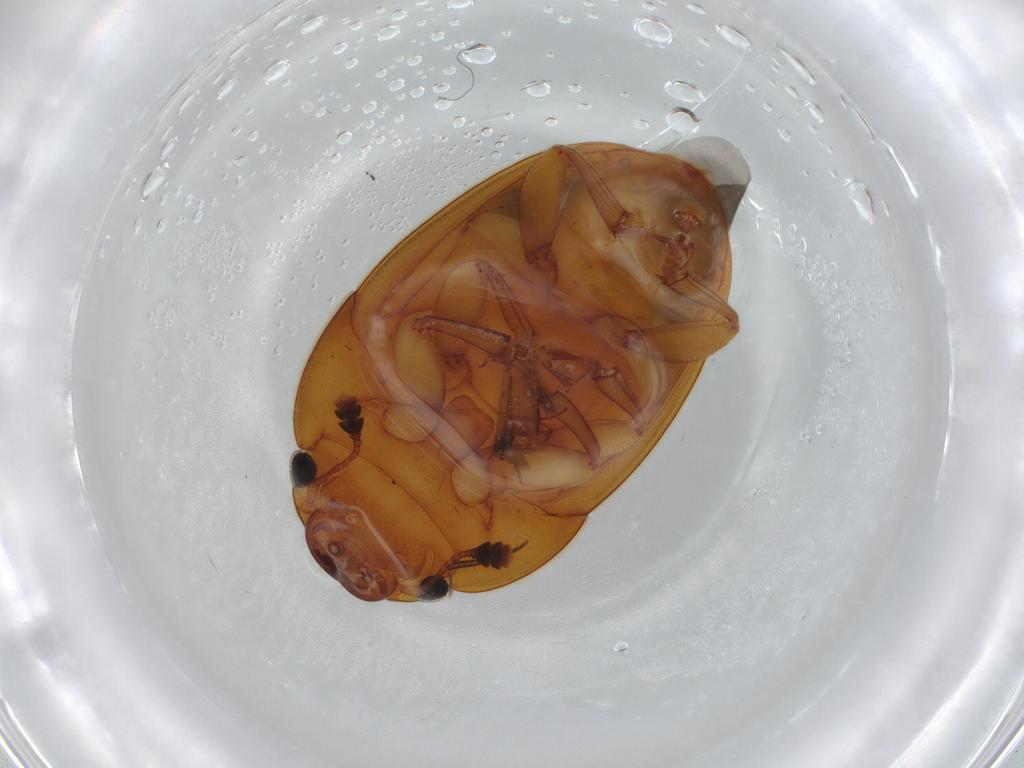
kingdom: Animalia
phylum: Arthropoda
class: Insecta
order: Coleoptera
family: Nitidulidae
